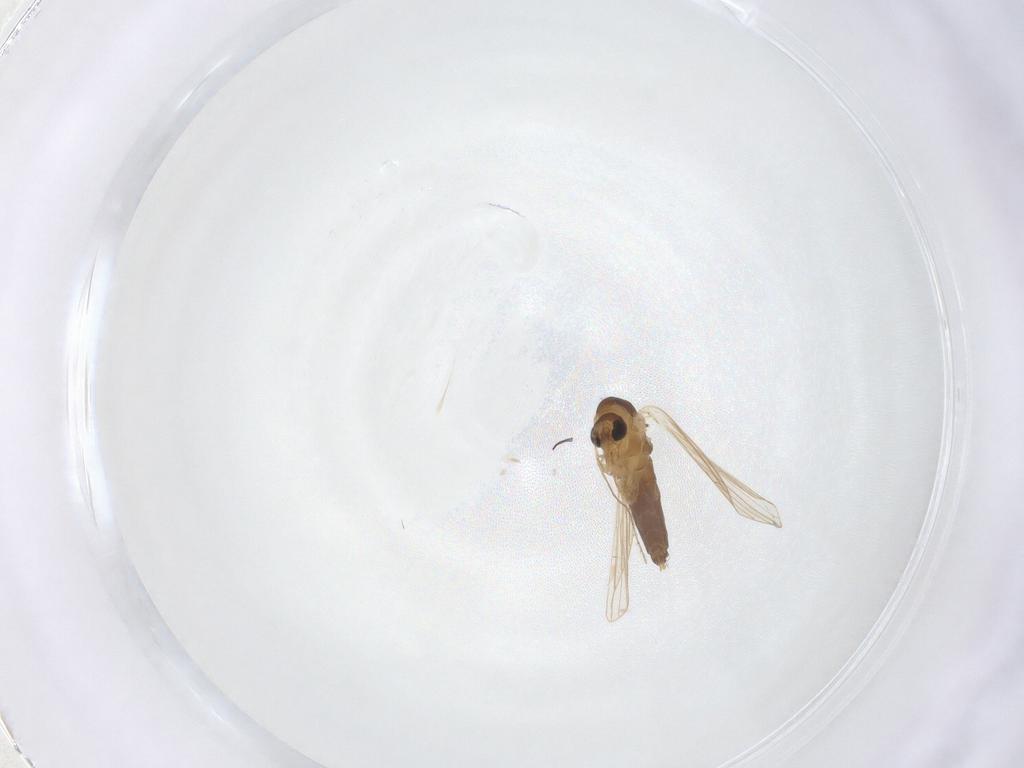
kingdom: Animalia
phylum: Arthropoda
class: Insecta
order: Diptera
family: Psychodidae
